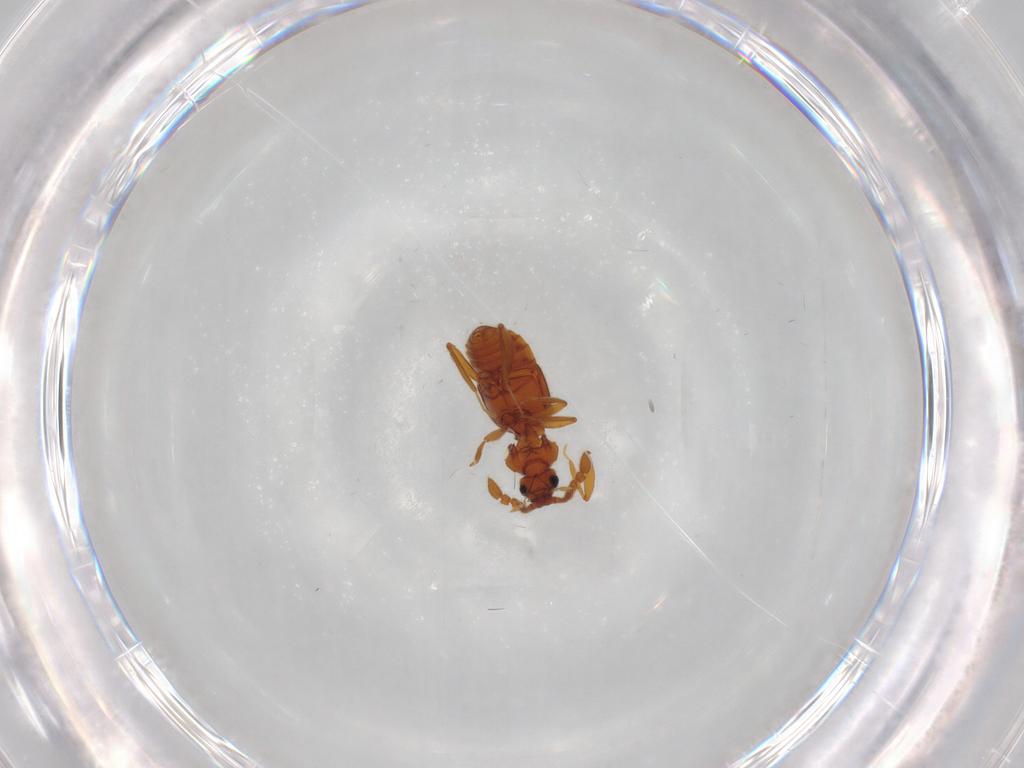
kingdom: Animalia
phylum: Arthropoda
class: Insecta
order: Coleoptera
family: Staphylinidae
